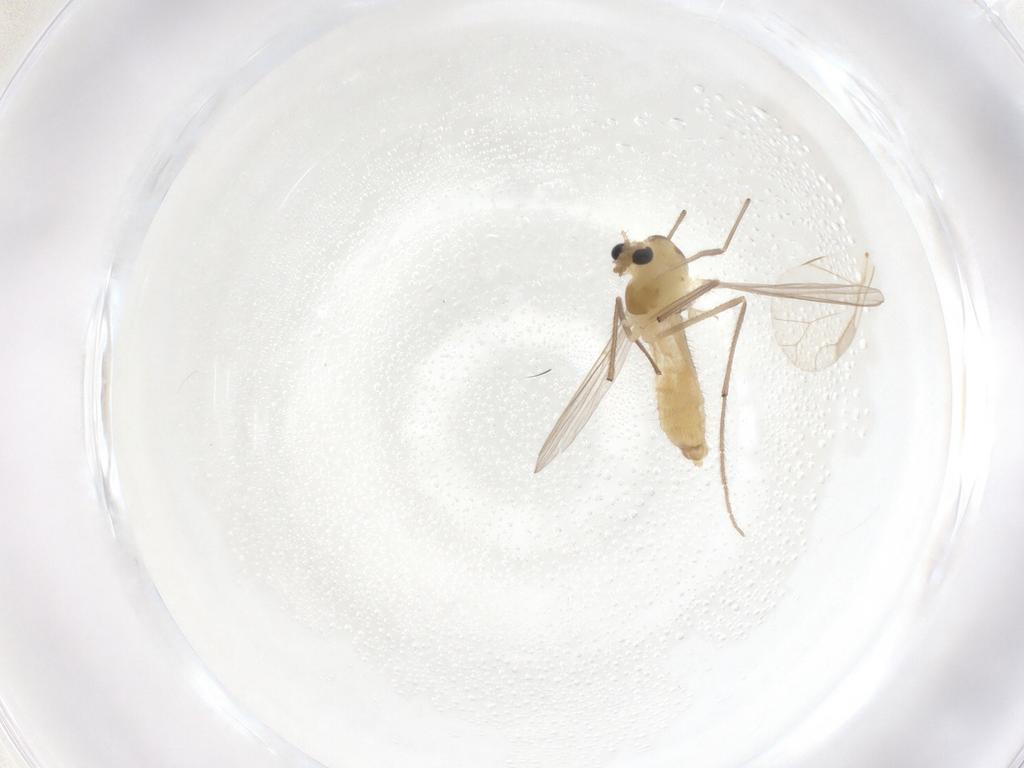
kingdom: Animalia
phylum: Arthropoda
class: Insecta
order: Diptera
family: Chironomidae
